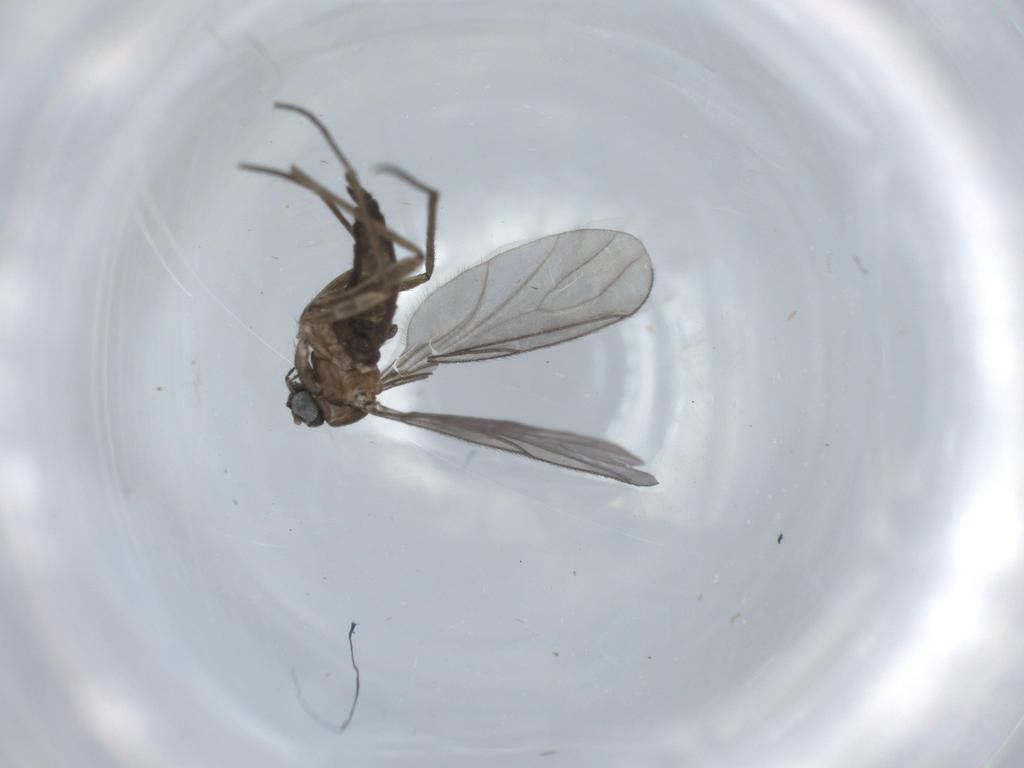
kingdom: Animalia
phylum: Arthropoda
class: Insecta
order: Diptera
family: Sciaridae
